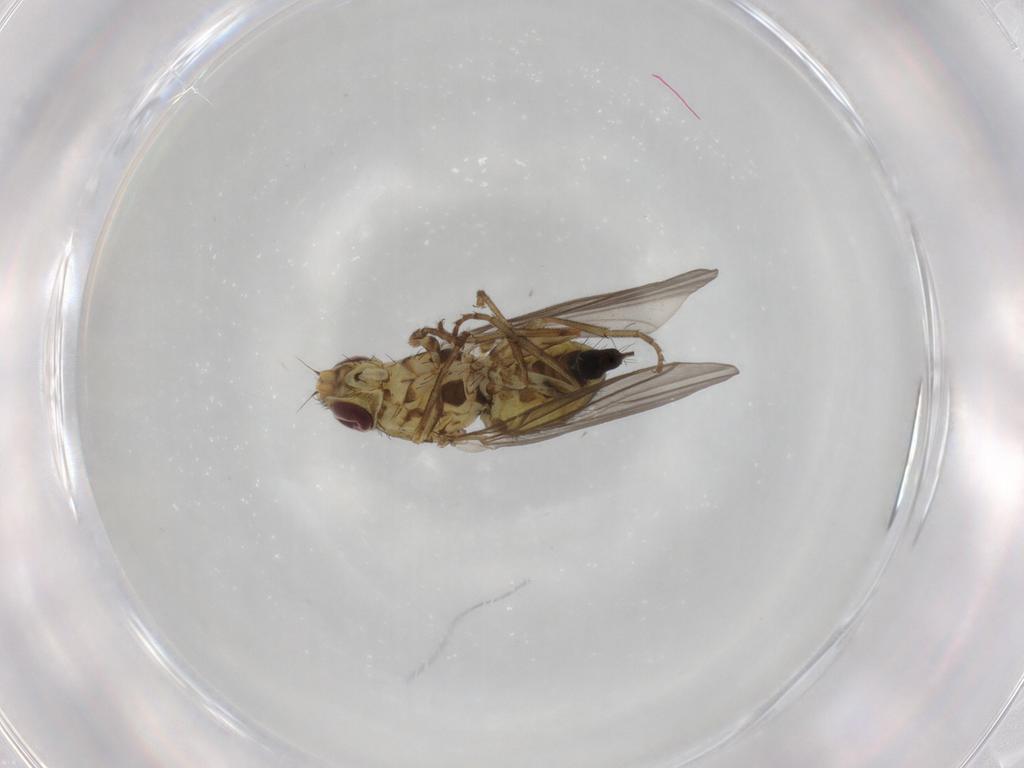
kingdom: Animalia
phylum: Arthropoda
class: Insecta
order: Diptera
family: Agromyzidae
